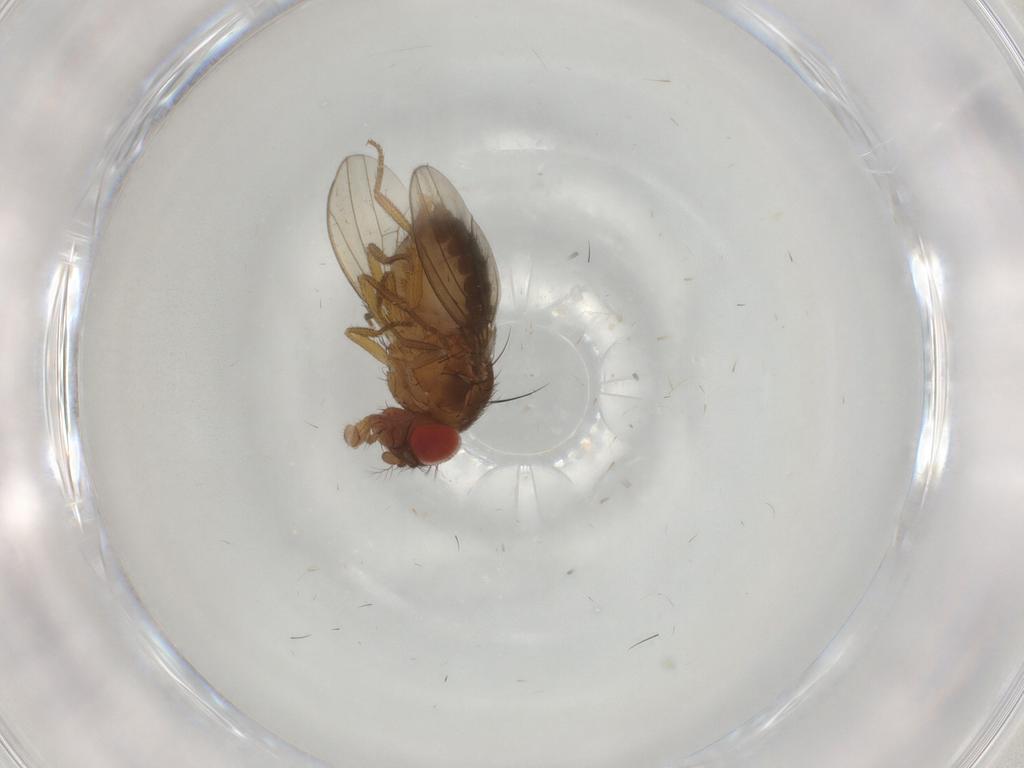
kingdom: Animalia
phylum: Arthropoda
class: Insecta
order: Diptera
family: Drosophilidae
